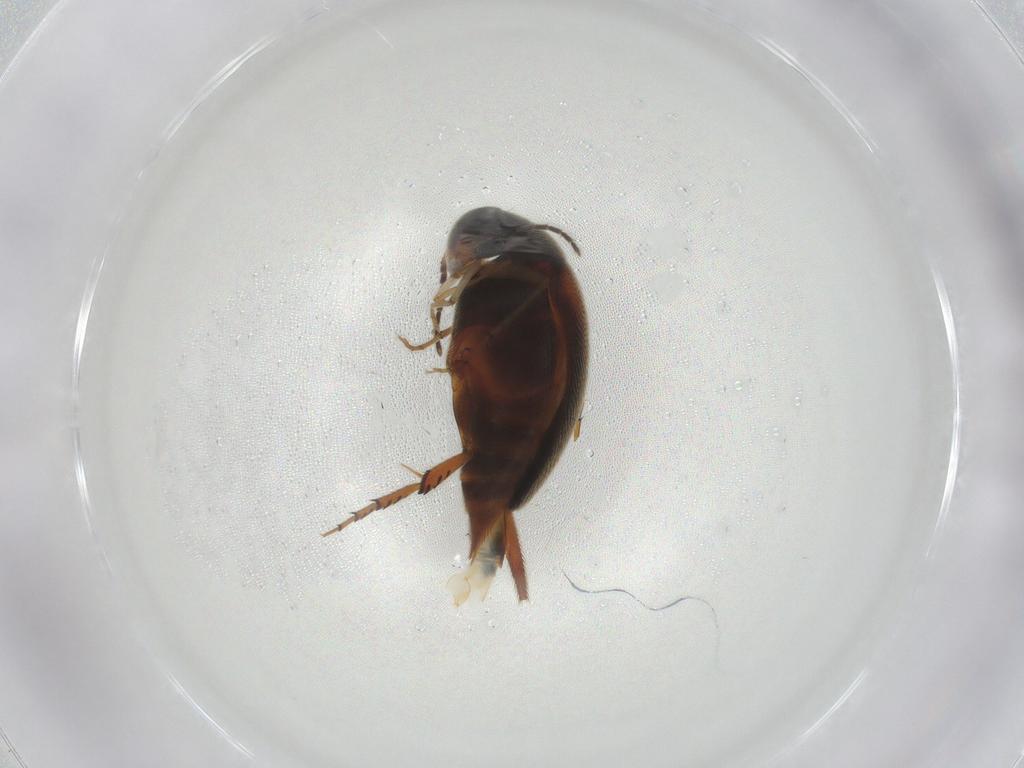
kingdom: Animalia
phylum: Arthropoda
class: Insecta
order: Coleoptera
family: Mordellidae
